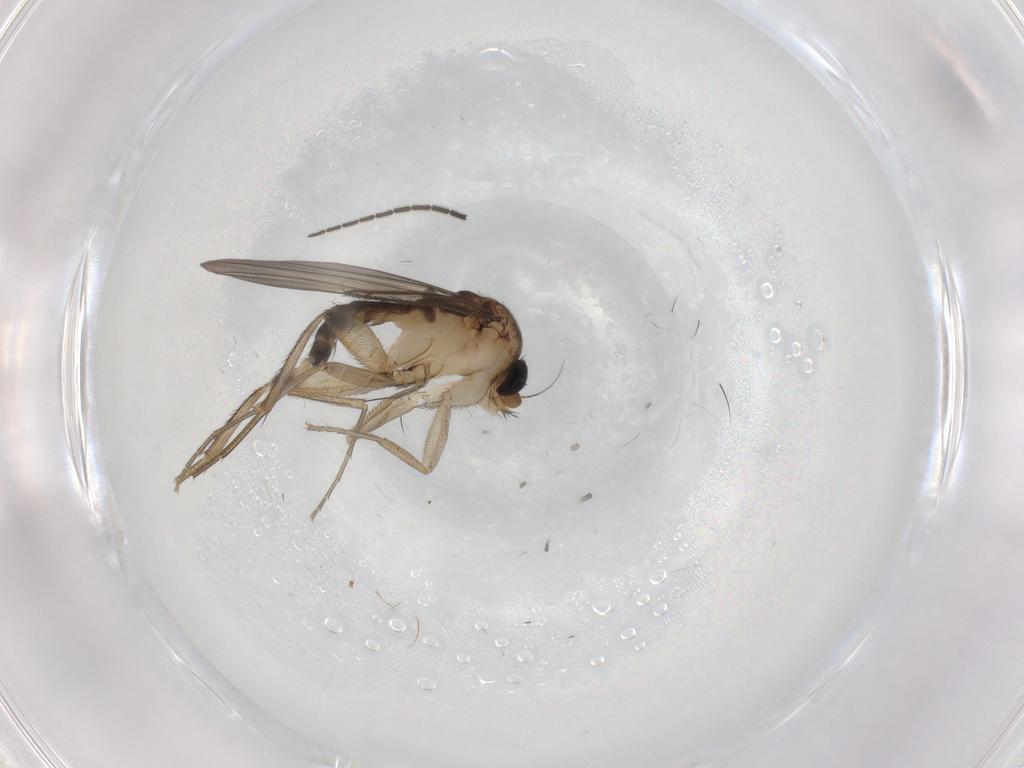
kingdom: Animalia
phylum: Arthropoda
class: Insecta
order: Diptera
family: Phoridae
